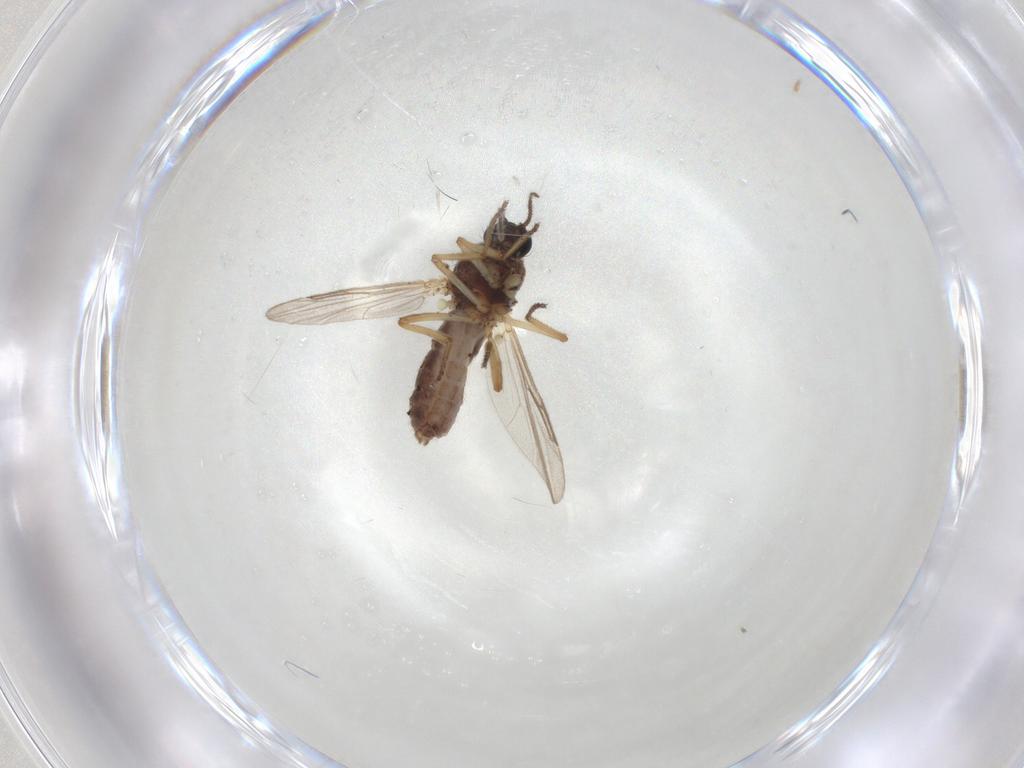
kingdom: Animalia
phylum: Arthropoda
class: Insecta
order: Diptera
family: Ceratopogonidae
